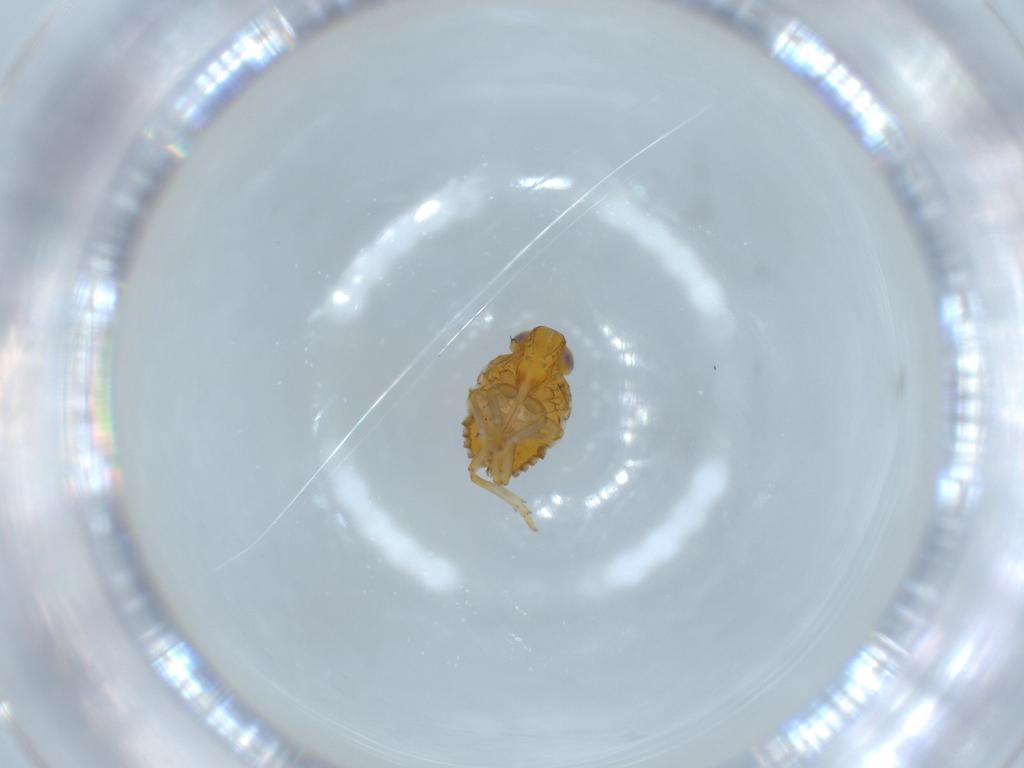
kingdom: Animalia
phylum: Arthropoda
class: Insecta
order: Hemiptera
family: Issidae
